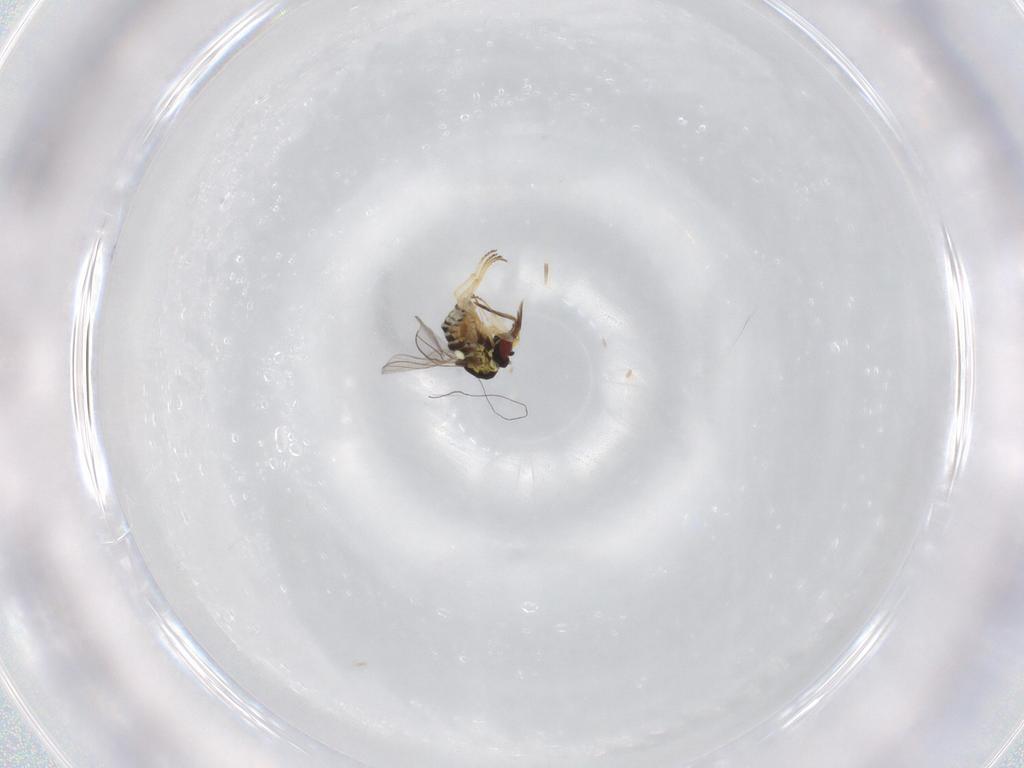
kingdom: Animalia
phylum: Arthropoda
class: Insecta
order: Diptera
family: Bombyliidae
